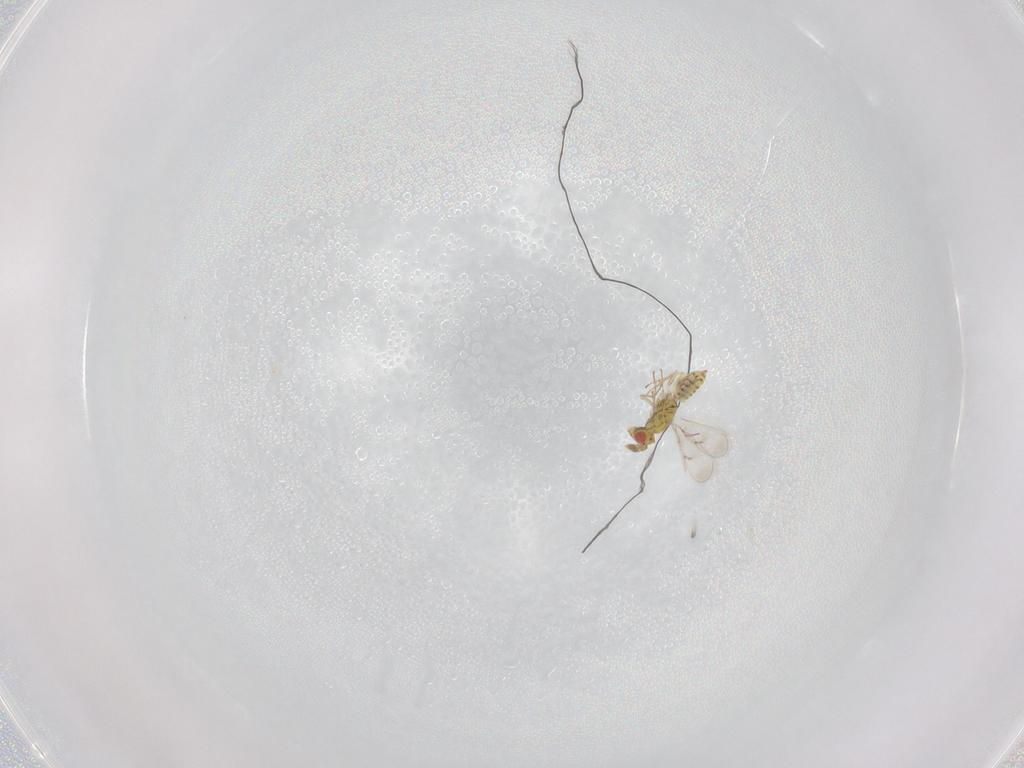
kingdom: Animalia
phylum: Arthropoda
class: Insecta
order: Hymenoptera
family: Eulophidae
